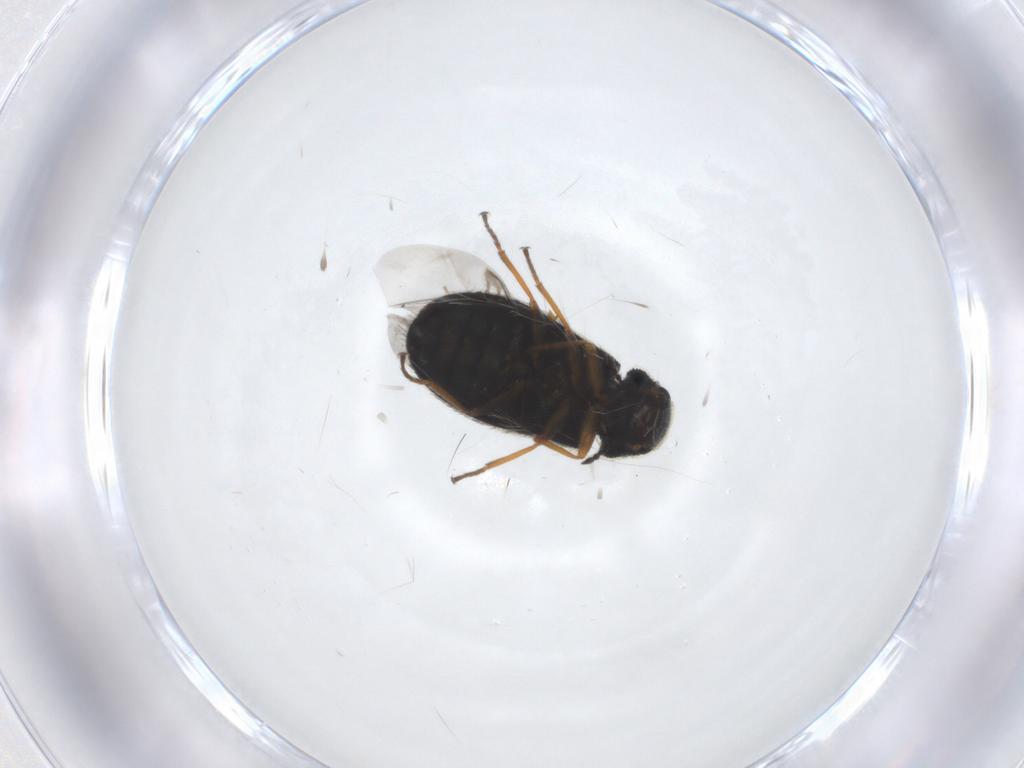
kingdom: Animalia
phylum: Arthropoda
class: Insecta
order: Coleoptera
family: Melyridae
